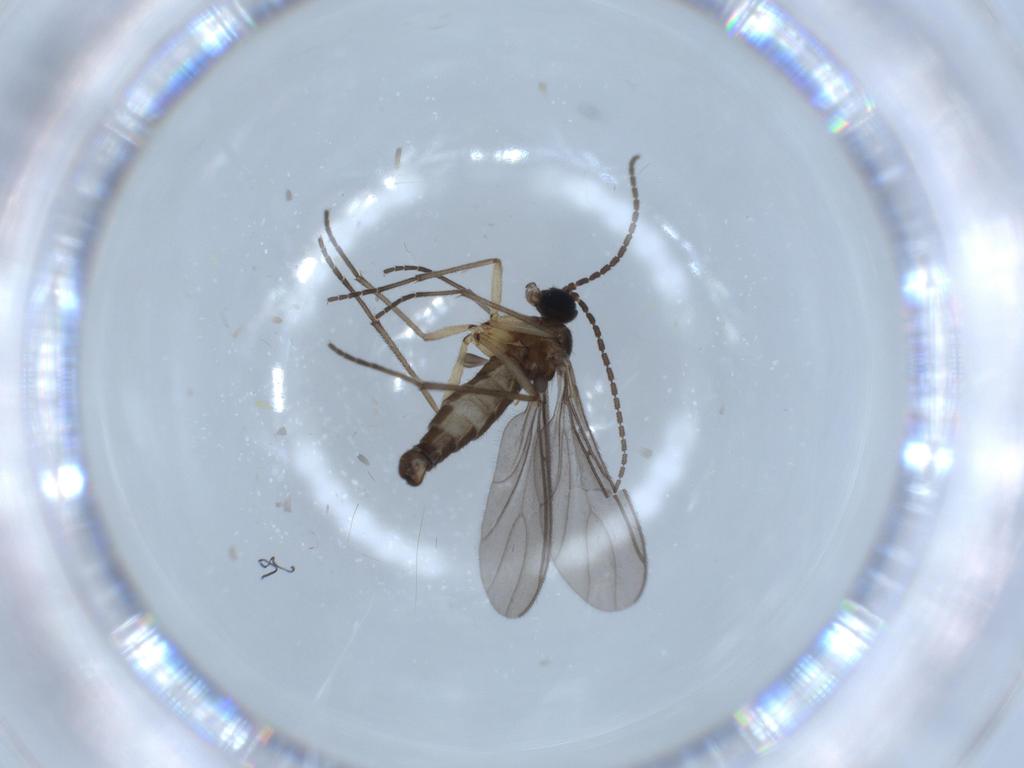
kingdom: Animalia
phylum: Arthropoda
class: Insecta
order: Diptera
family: Sciaridae
